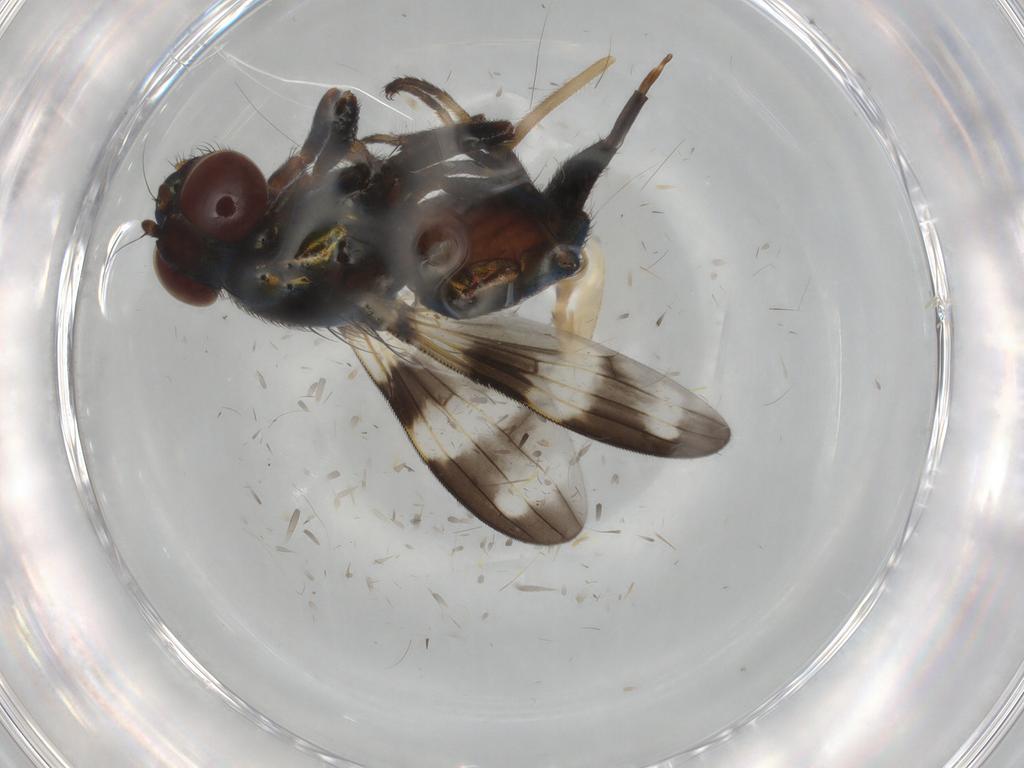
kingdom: Animalia
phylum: Arthropoda
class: Insecta
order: Diptera
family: Ulidiidae
